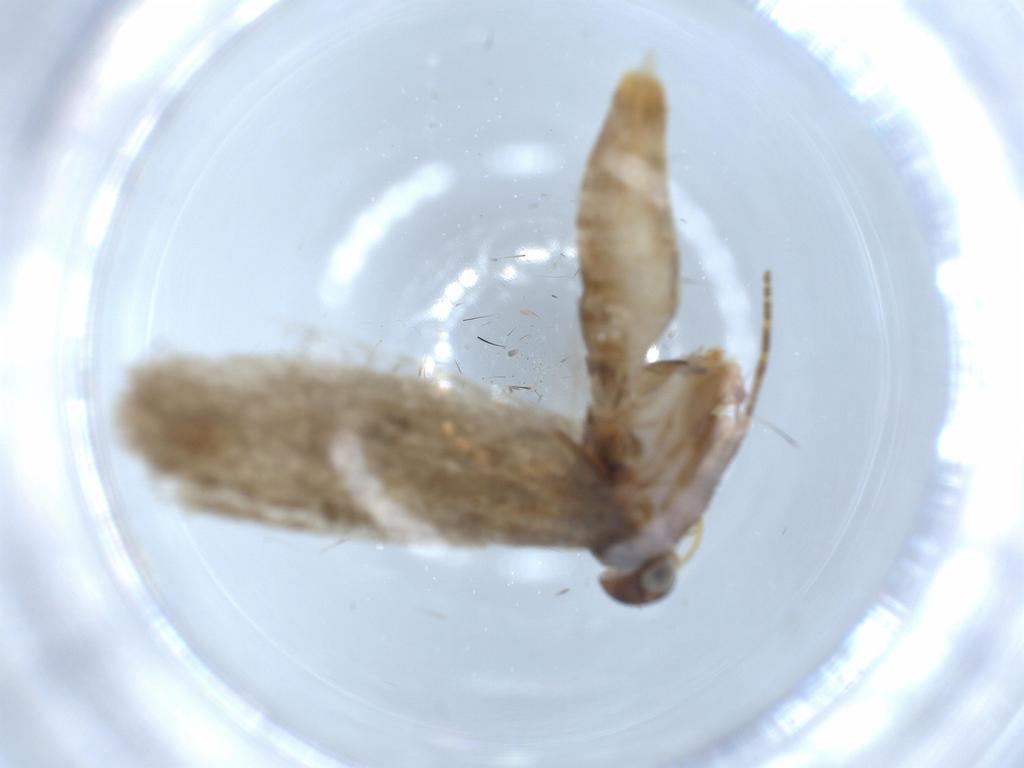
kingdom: Animalia
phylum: Arthropoda
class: Insecta
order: Lepidoptera
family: Gelechiidae
